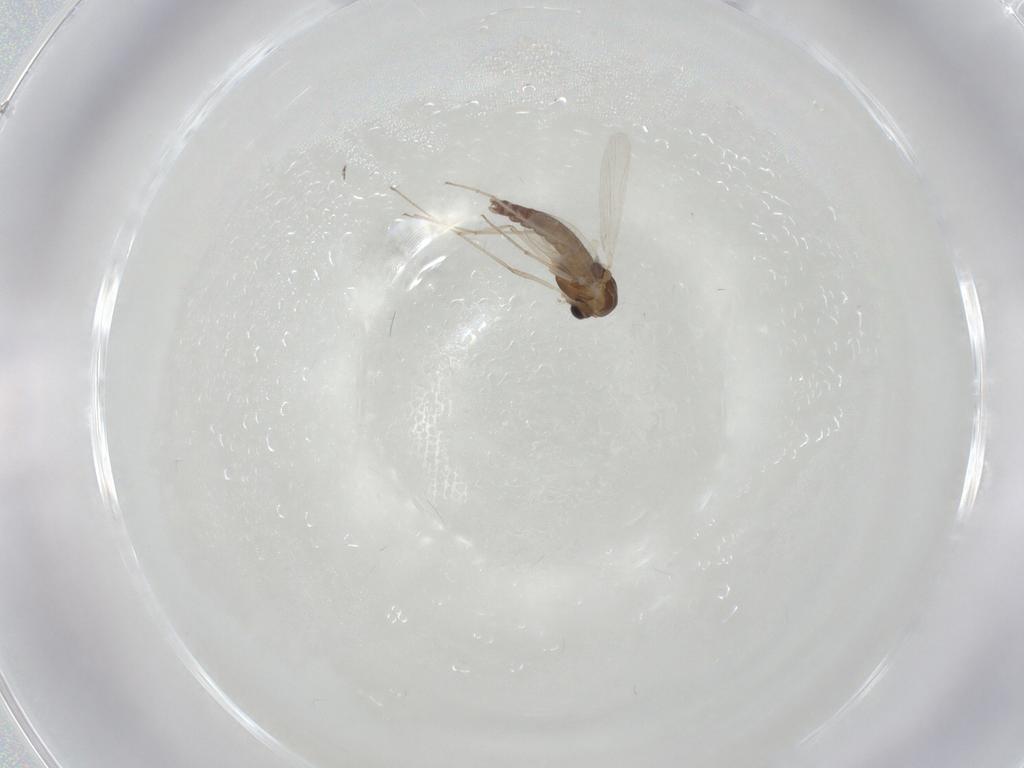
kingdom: Animalia
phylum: Arthropoda
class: Insecta
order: Diptera
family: Chironomidae
